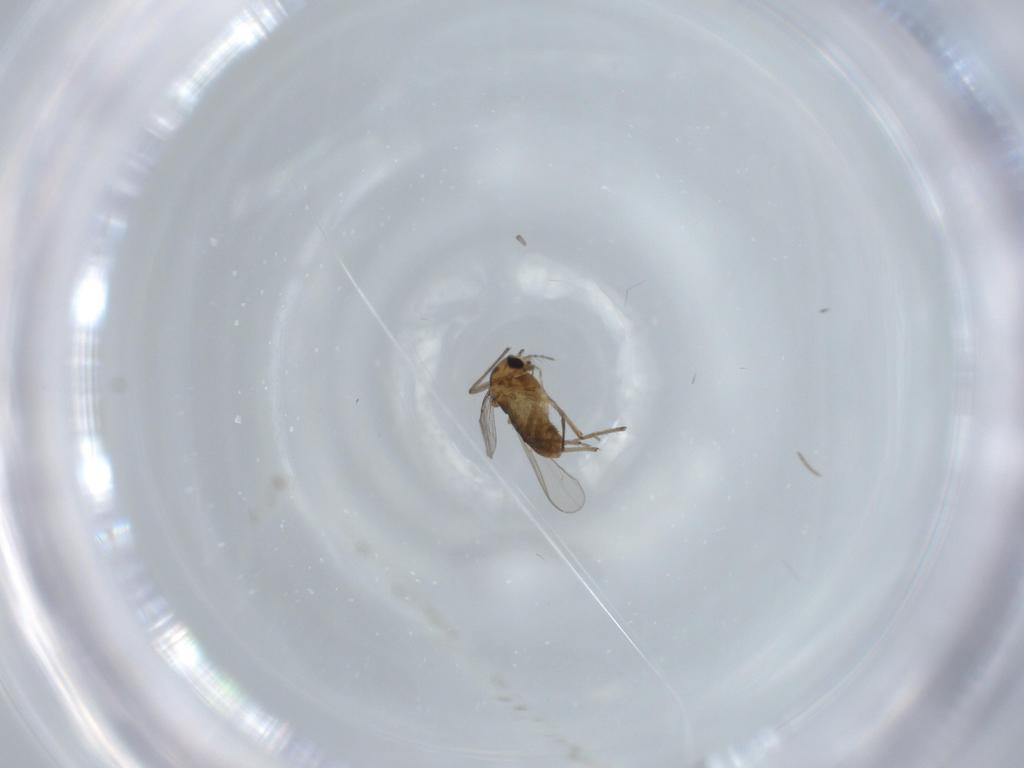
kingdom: Animalia
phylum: Arthropoda
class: Insecta
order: Diptera
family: Chironomidae
